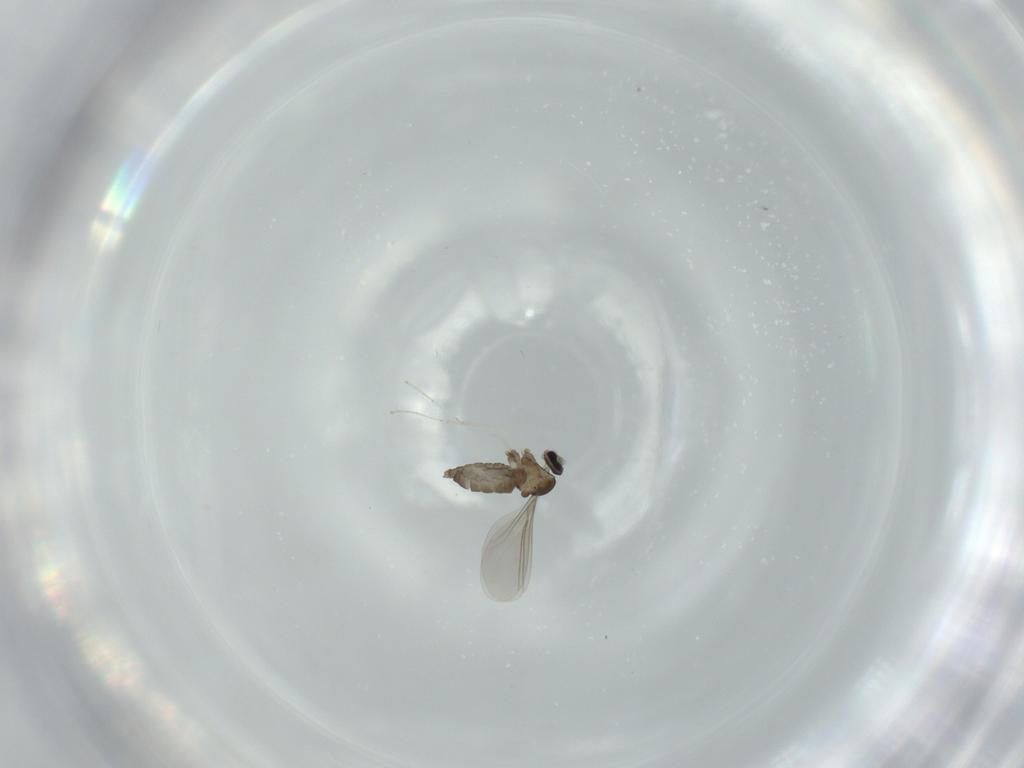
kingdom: Animalia
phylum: Arthropoda
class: Insecta
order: Diptera
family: Cecidomyiidae
